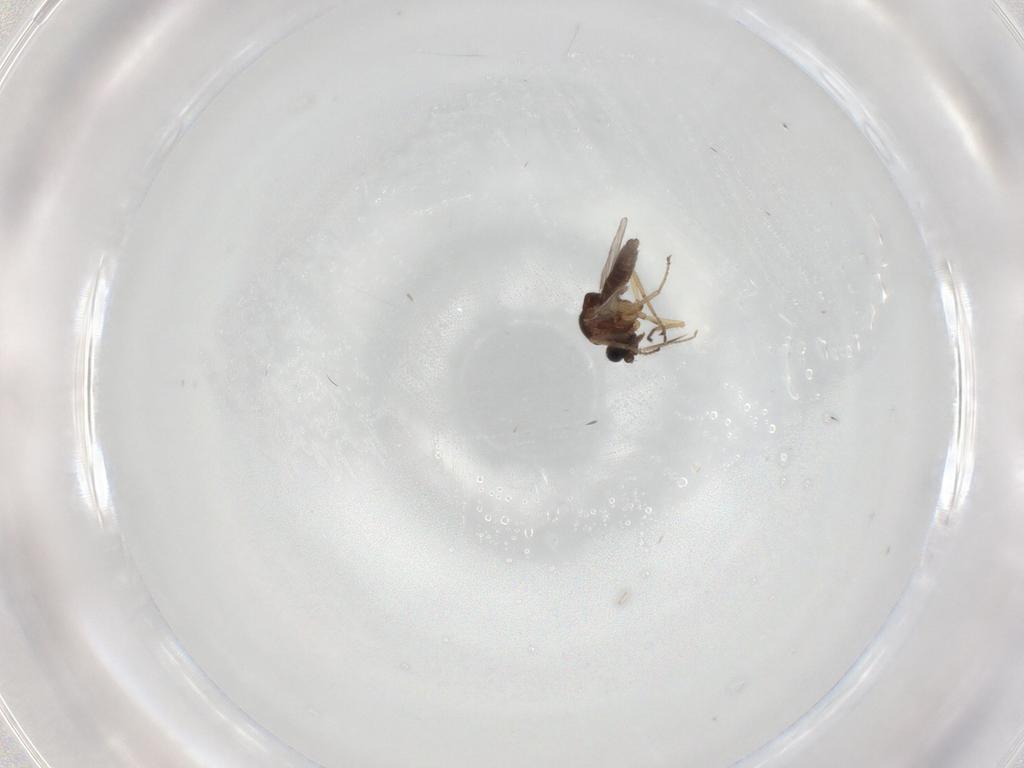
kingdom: Animalia
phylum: Arthropoda
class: Insecta
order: Diptera
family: Ceratopogonidae
